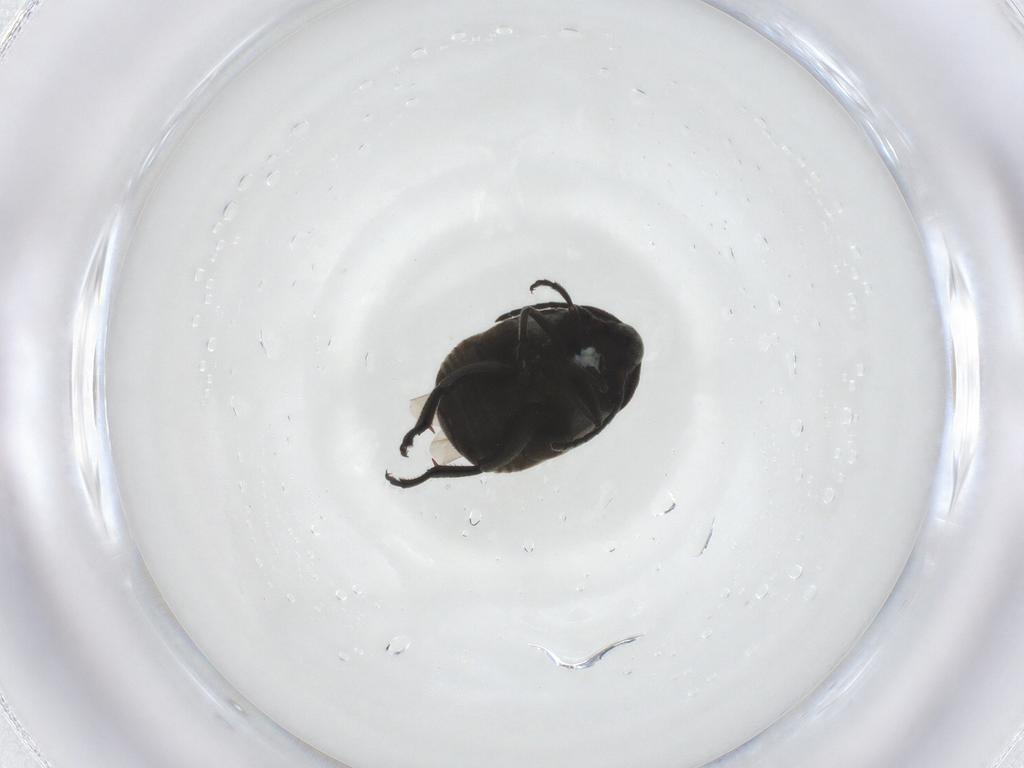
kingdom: Animalia
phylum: Arthropoda
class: Insecta
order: Coleoptera
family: Chrysomelidae
